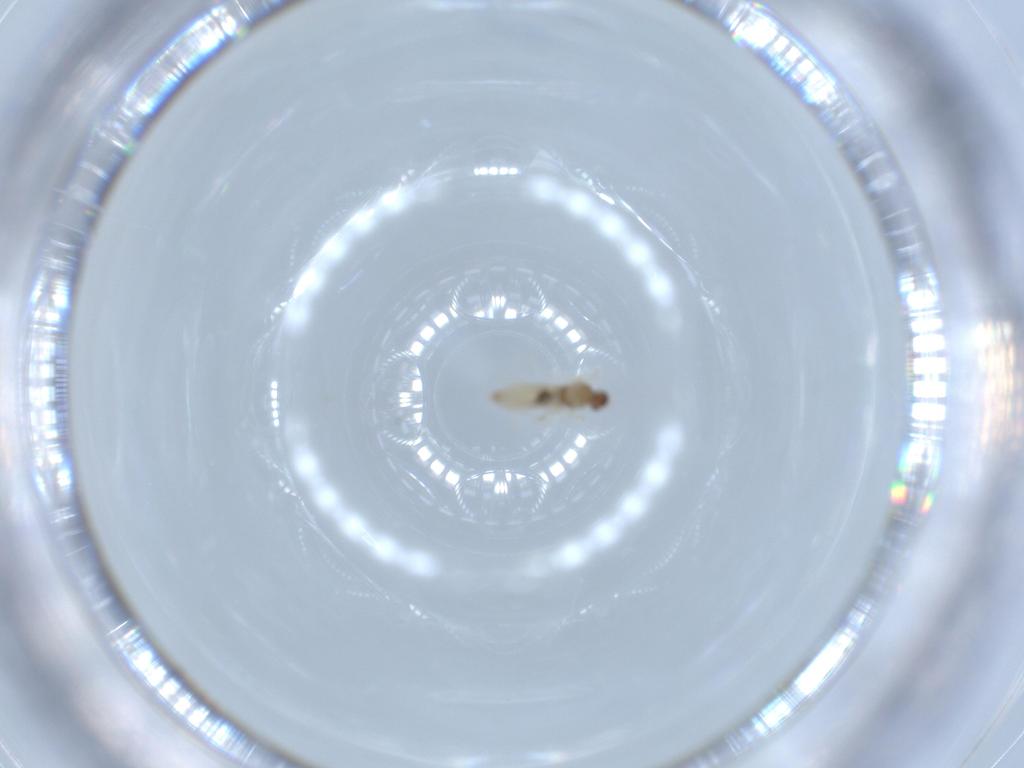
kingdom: Animalia
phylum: Arthropoda
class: Insecta
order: Diptera
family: Cecidomyiidae
